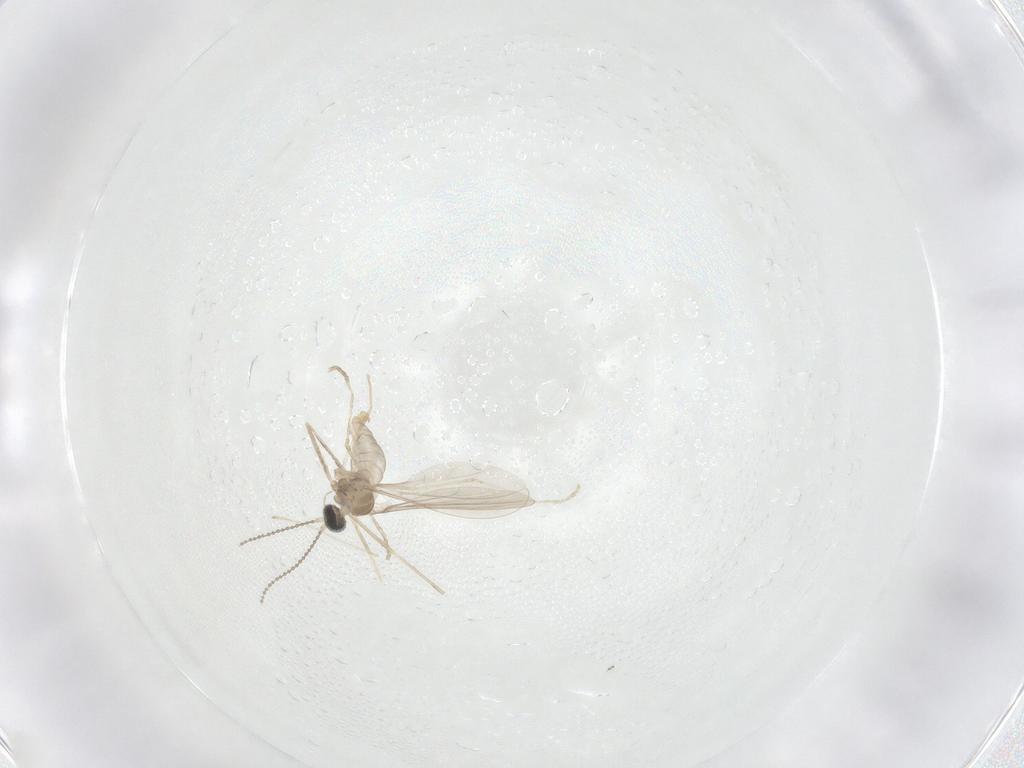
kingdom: Animalia
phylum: Arthropoda
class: Insecta
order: Diptera
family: Cecidomyiidae
